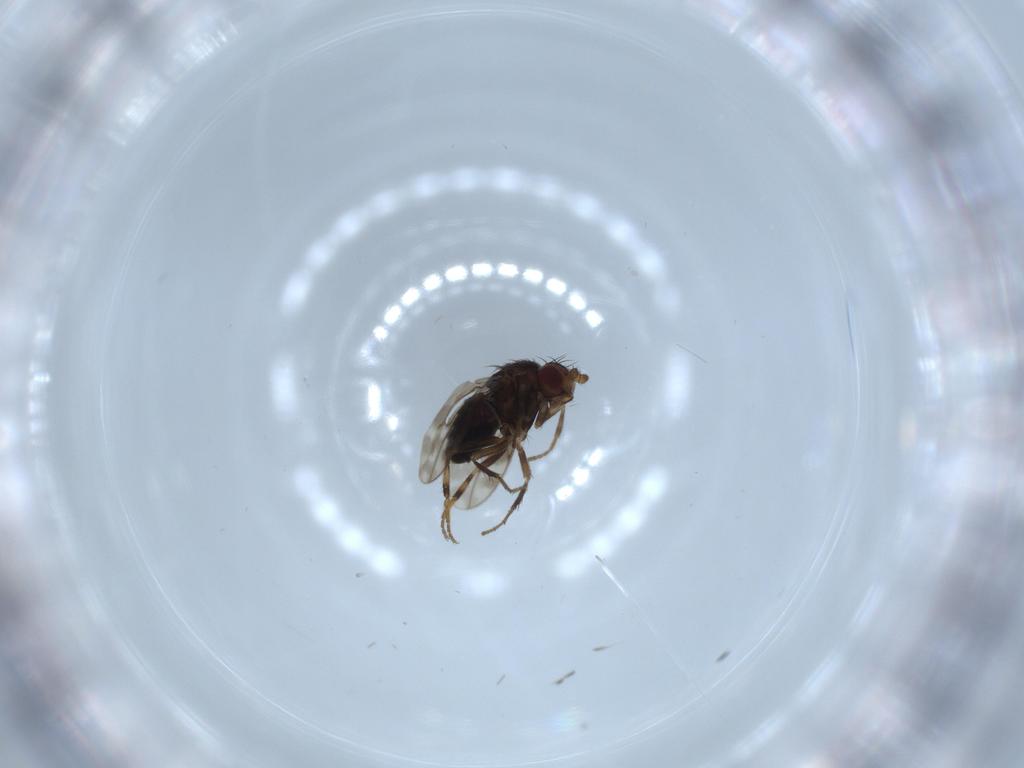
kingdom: Animalia
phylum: Arthropoda
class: Insecta
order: Diptera
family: Sphaeroceridae
